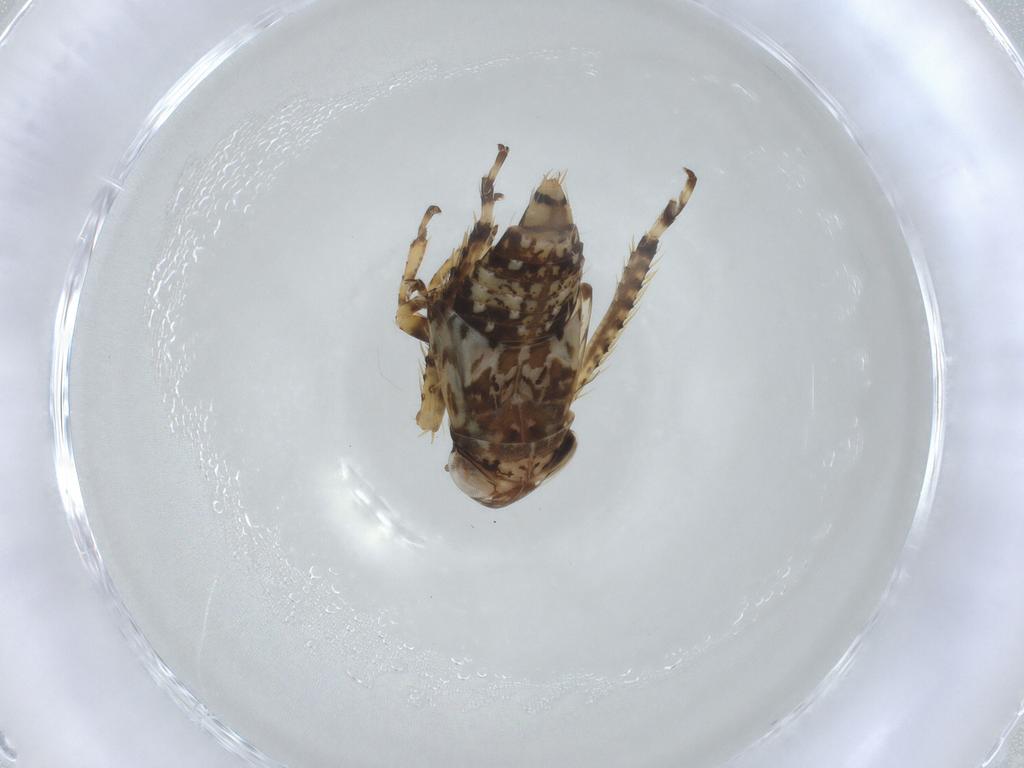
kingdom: Animalia
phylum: Arthropoda
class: Insecta
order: Hemiptera
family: Cicadellidae
